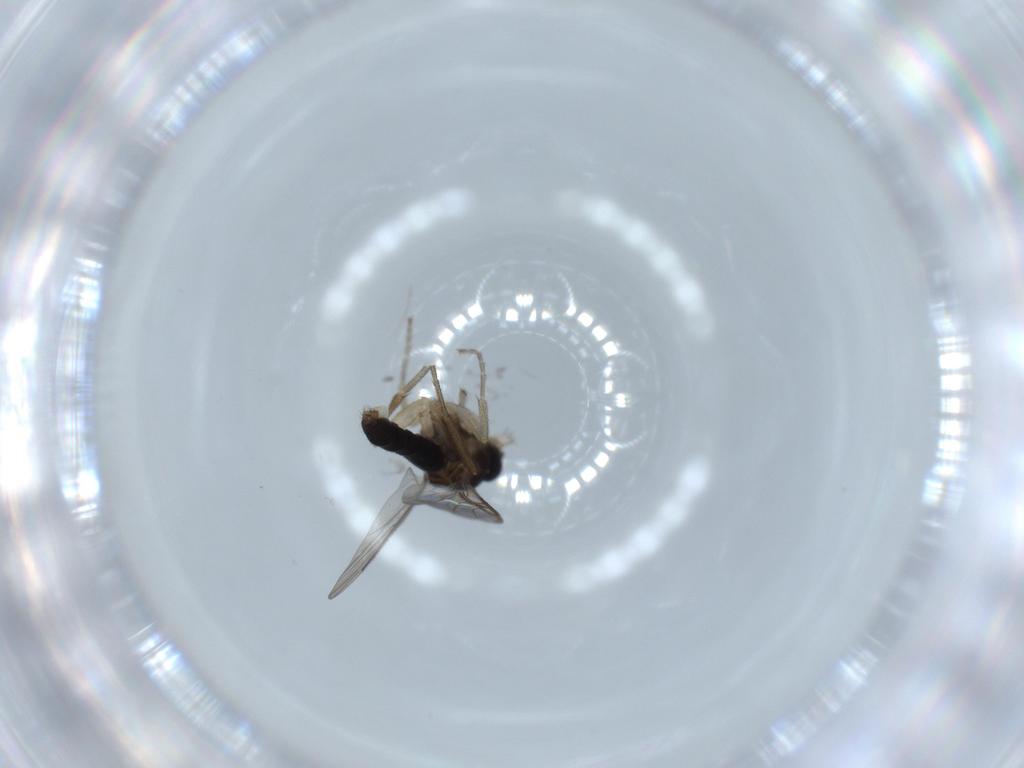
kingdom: Animalia
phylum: Arthropoda
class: Insecta
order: Diptera
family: Phoridae
